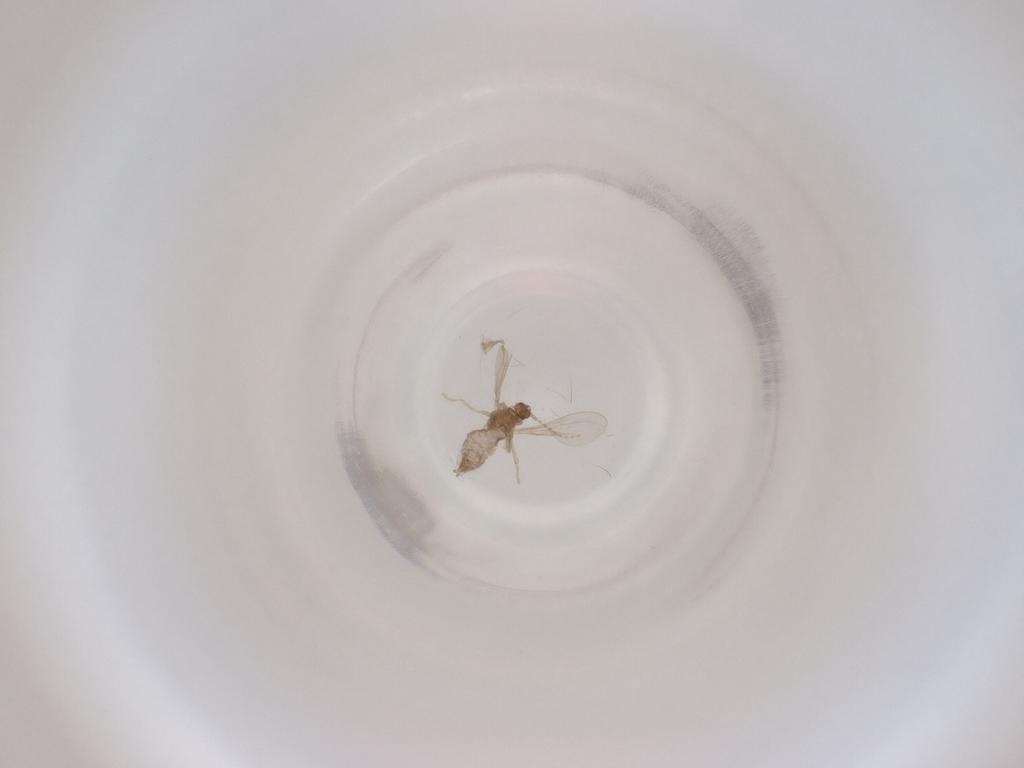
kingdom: Animalia
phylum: Arthropoda
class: Insecta
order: Diptera
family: Cecidomyiidae
